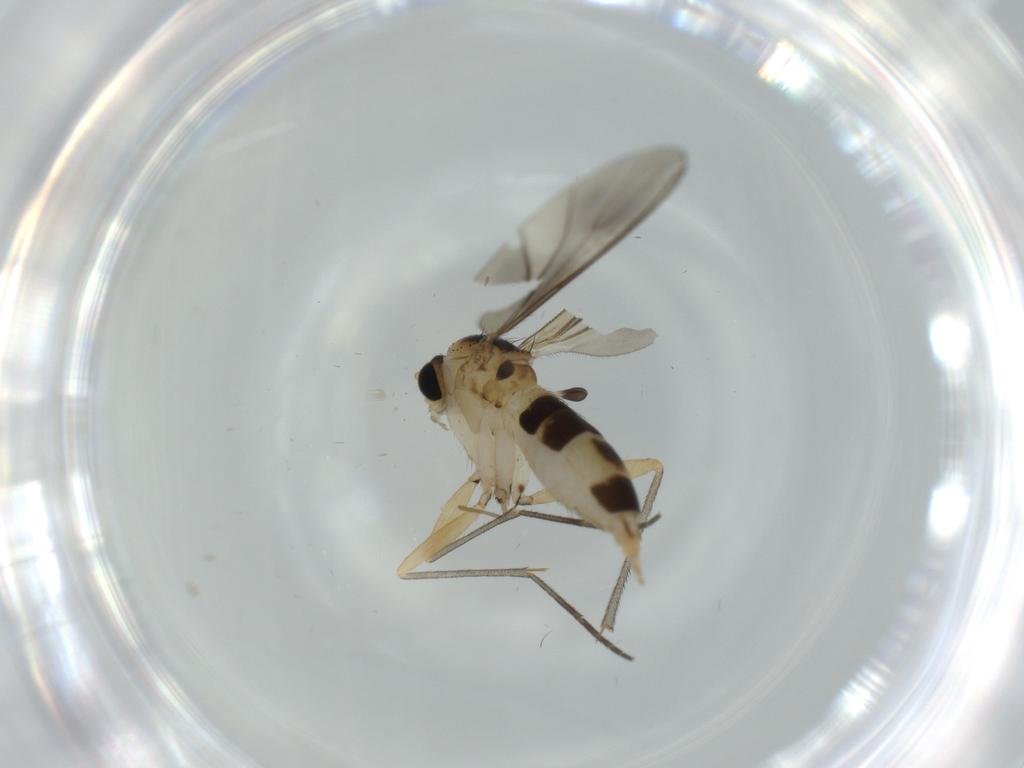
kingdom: Animalia
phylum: Arthropoda
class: Insecta
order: Diptera
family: Sciaridae
